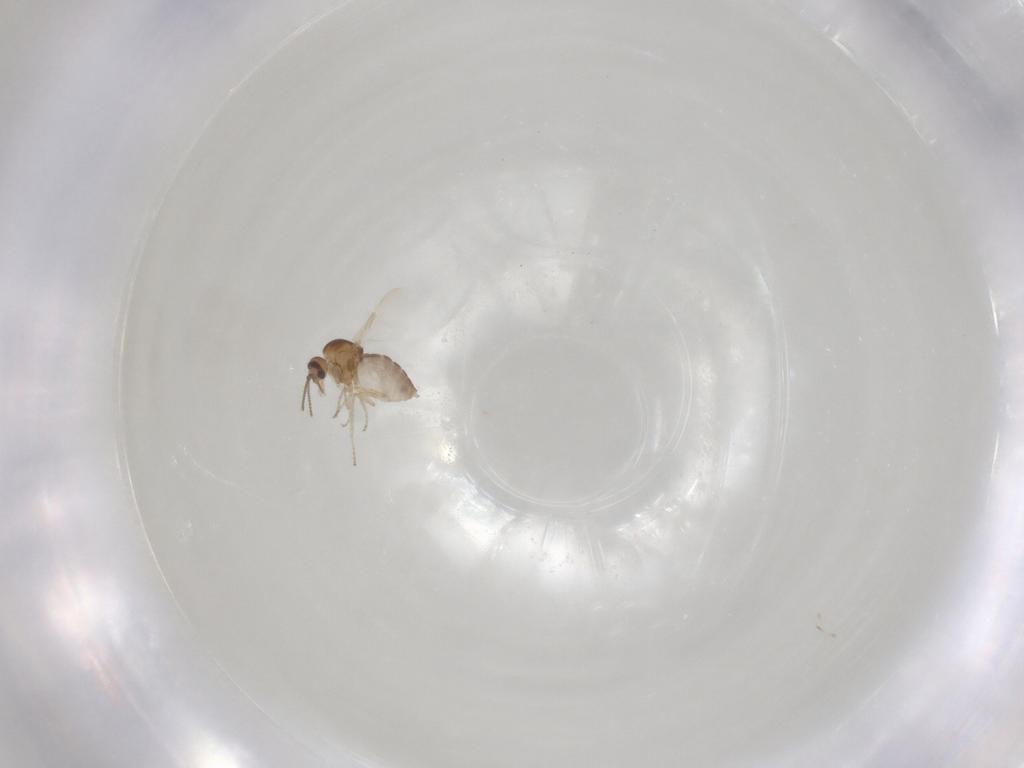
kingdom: Animalia
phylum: Arthropoda
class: Insecta
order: Diptera
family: Ceratopogonidae
